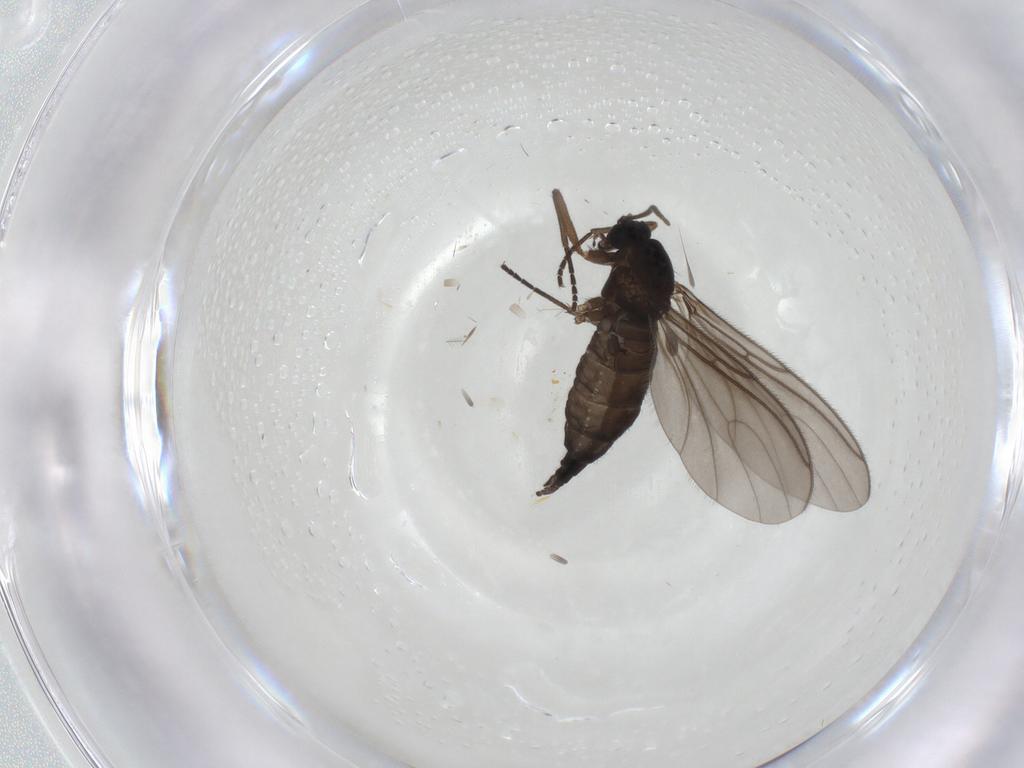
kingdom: Animalia
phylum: Arthropoda
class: Insecta
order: Diptera
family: Sciaridae
